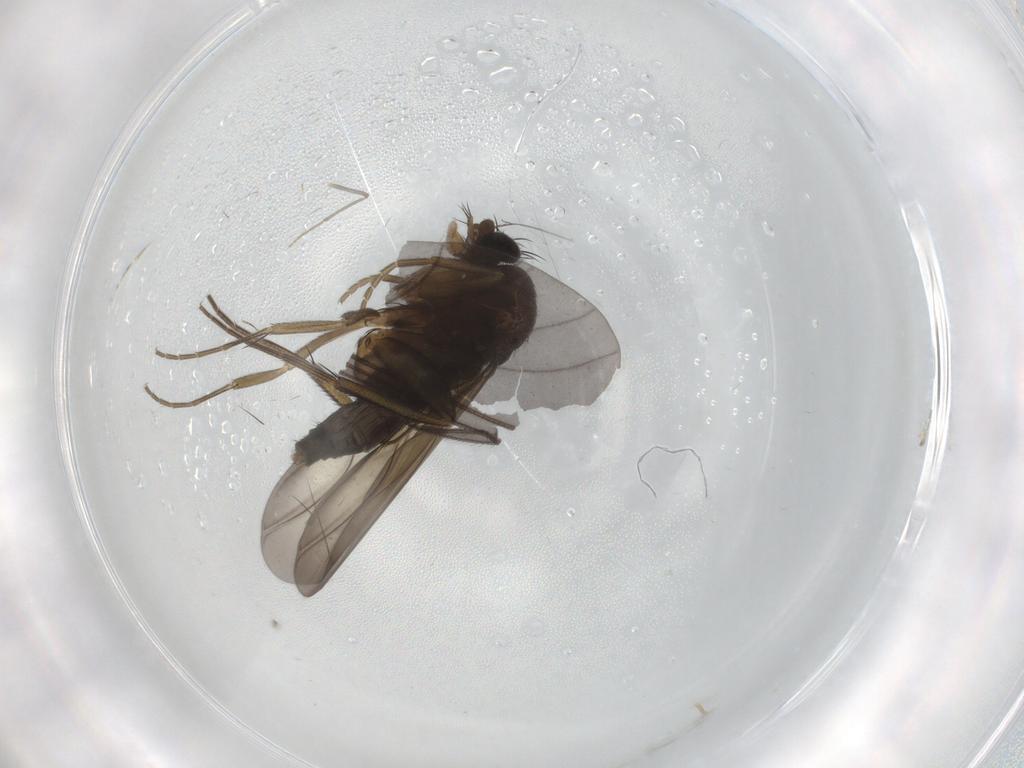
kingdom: Animalia
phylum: Arthropoda
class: Insecta
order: Diptera
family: Phoridae
